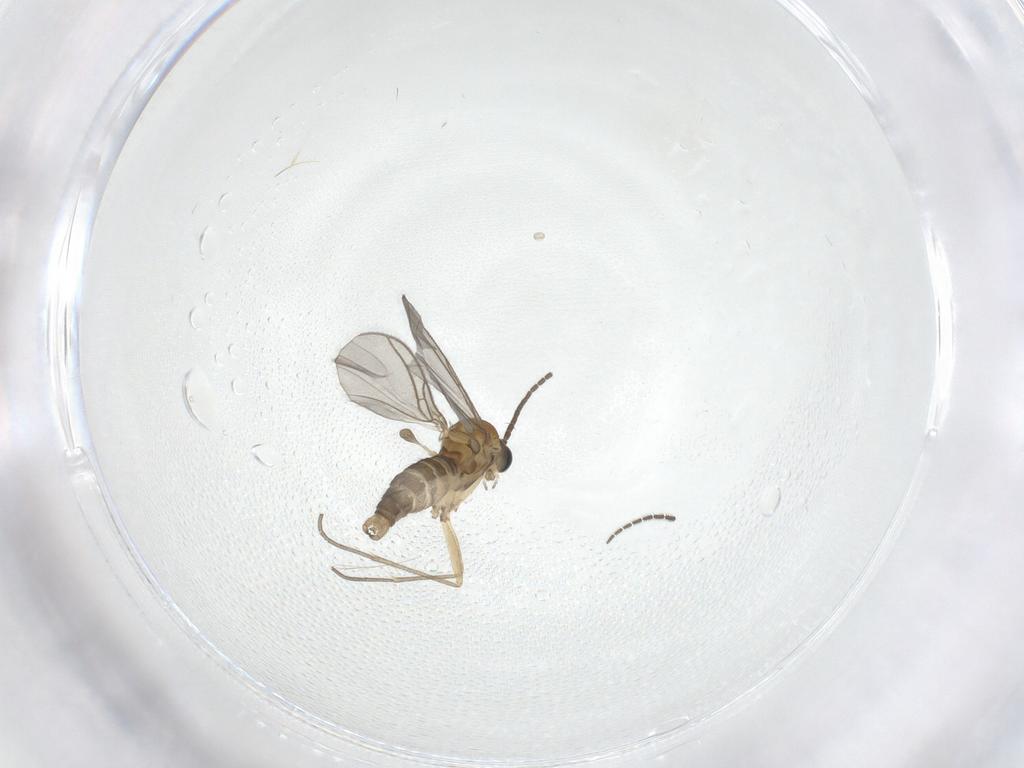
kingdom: Animalia
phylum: Arthropoda
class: Insecta
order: Diptera
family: Sciaridae
